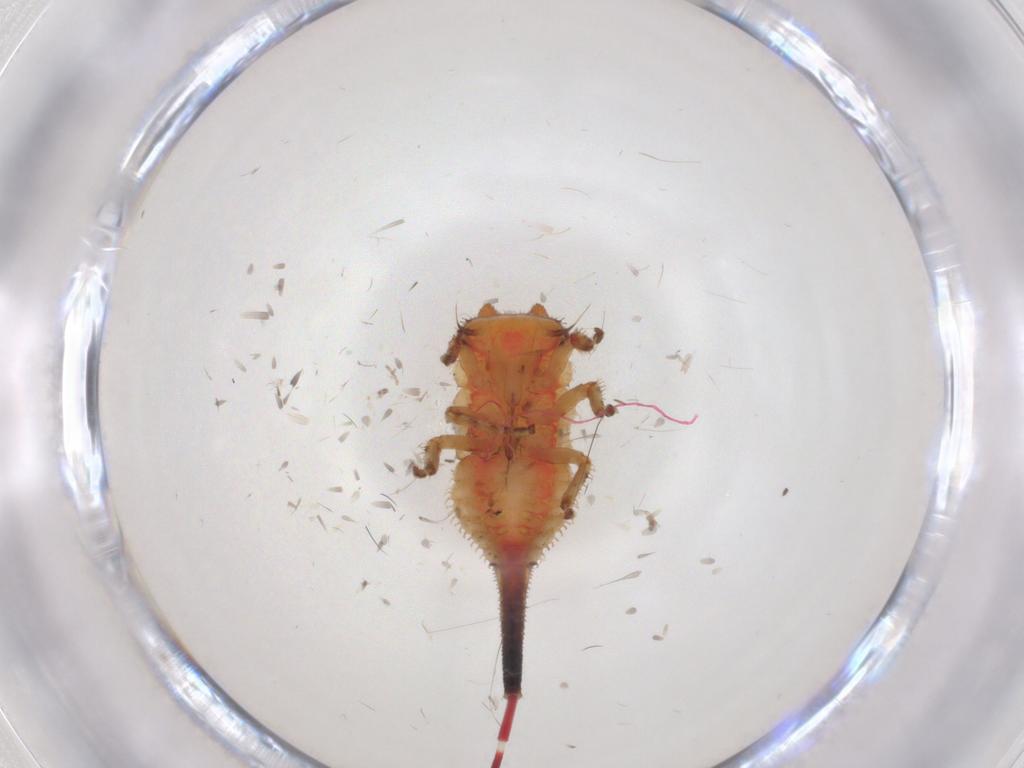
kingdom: Animalia
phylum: Arthropoda
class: Insecta
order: Hemiptera
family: Membracidae
